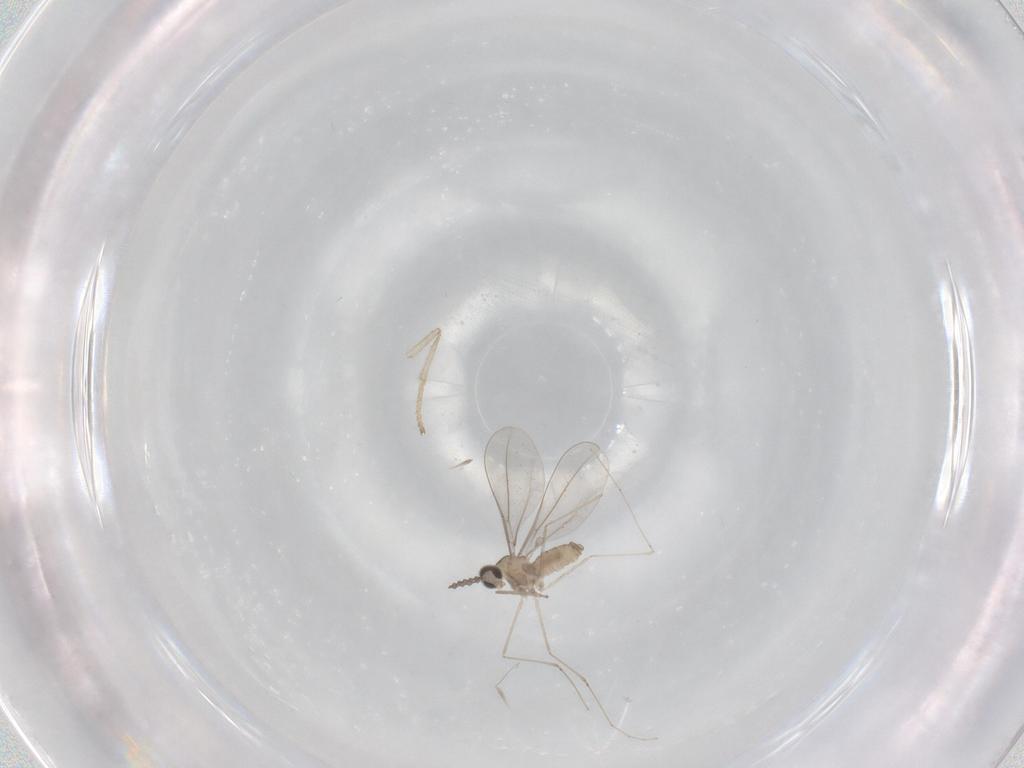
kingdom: Animalia
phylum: Arthropoda
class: Insecta
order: Diptera
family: Psychodidae
